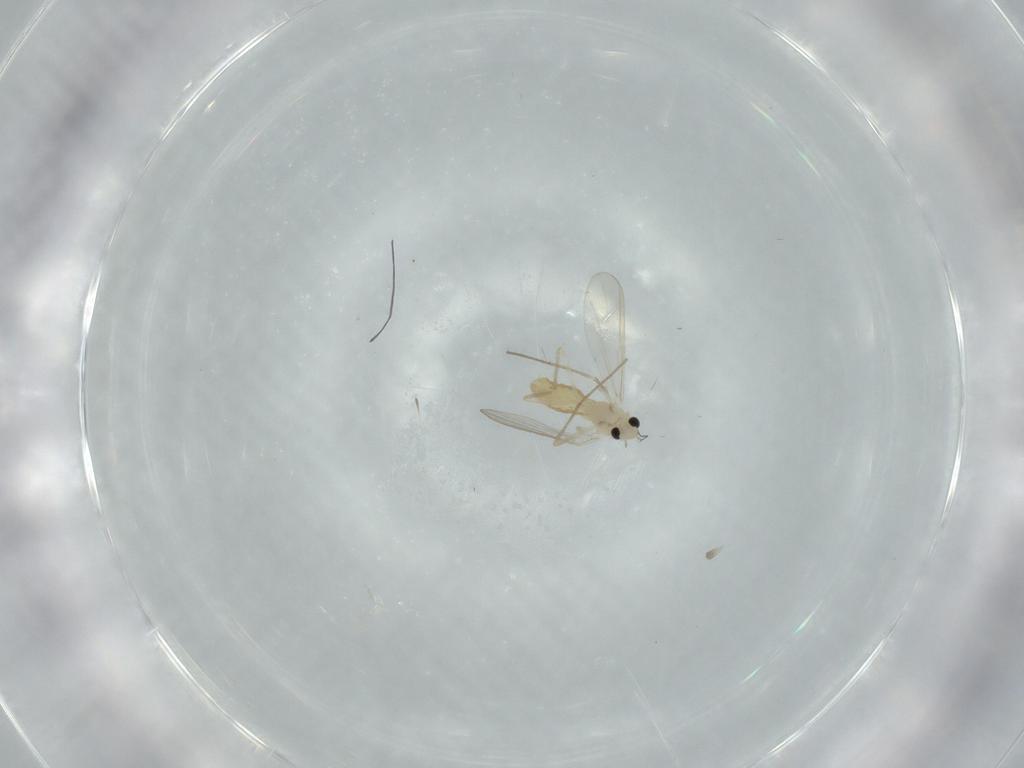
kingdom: Animalia
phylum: Arthropoda
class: Insecta
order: Diptera
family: Chironomidae
